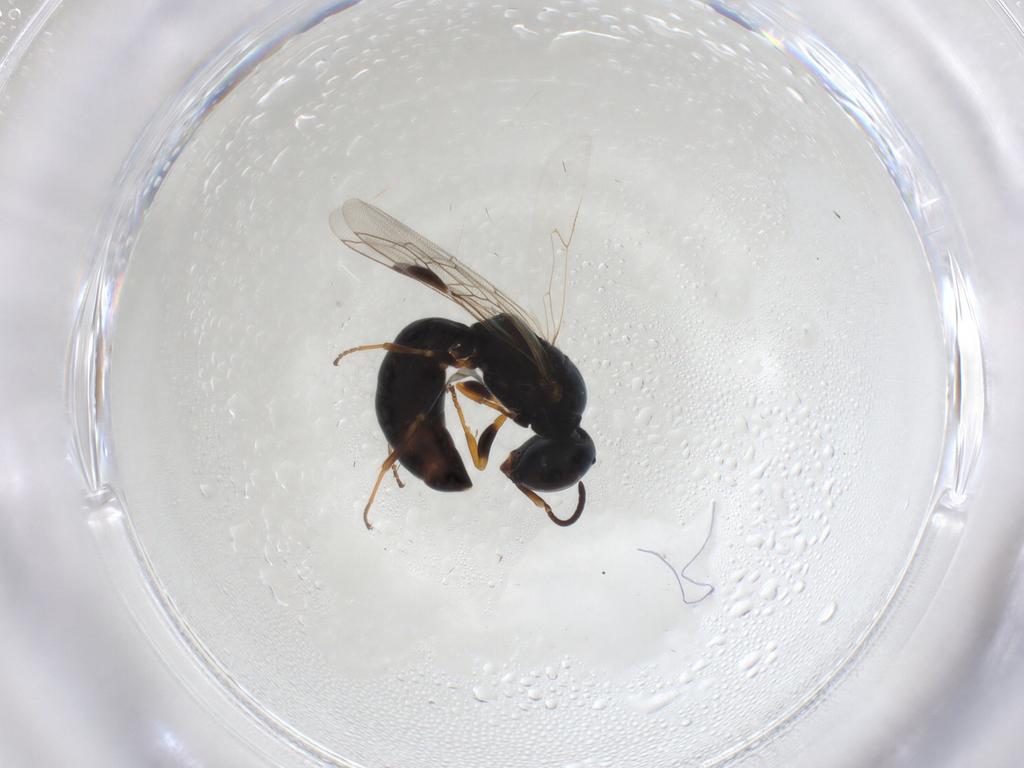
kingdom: Animalia
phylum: Arthropoda
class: Insecta
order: Hymenoptera
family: Pemphredonidae
